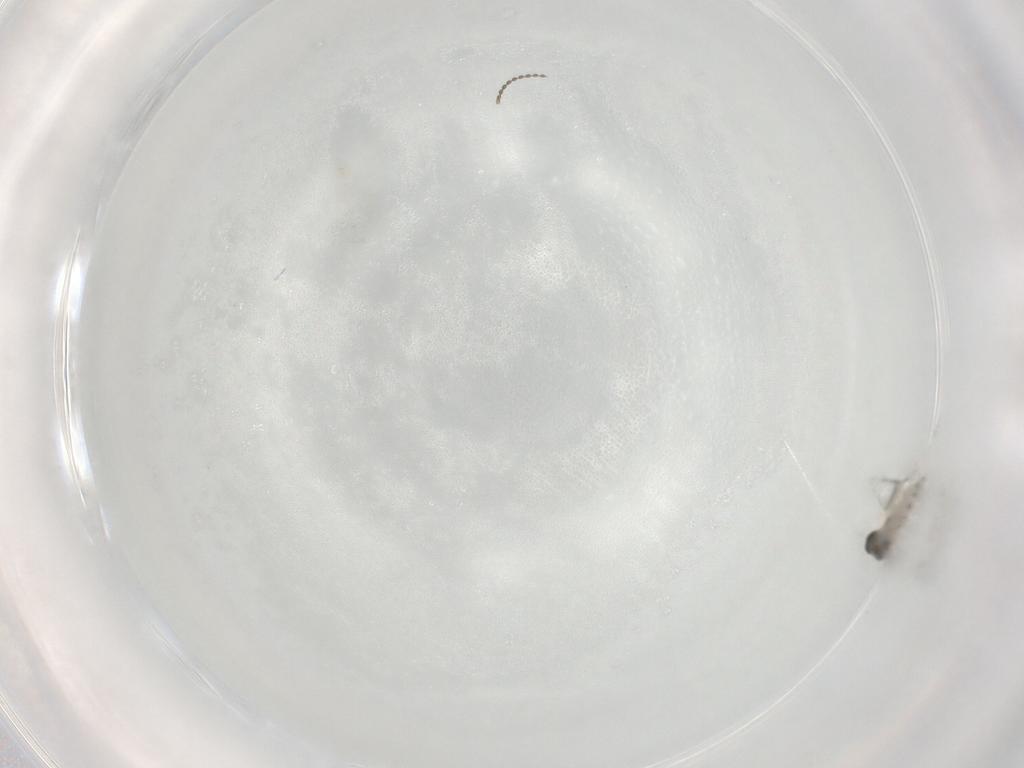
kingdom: Animalia
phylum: Arthropoda
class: Insecta
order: Diptera
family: Cecidomyiidae
